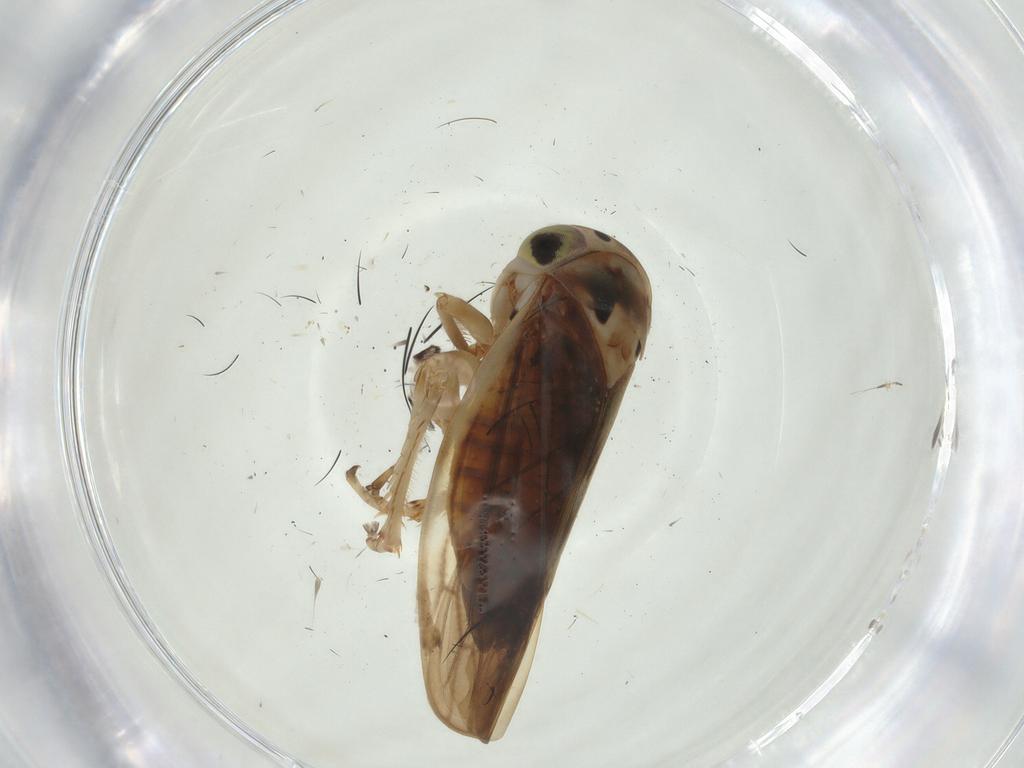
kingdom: Animalia
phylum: Arthropoda
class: Insecta
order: Hemiptera
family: Cicadellidae
